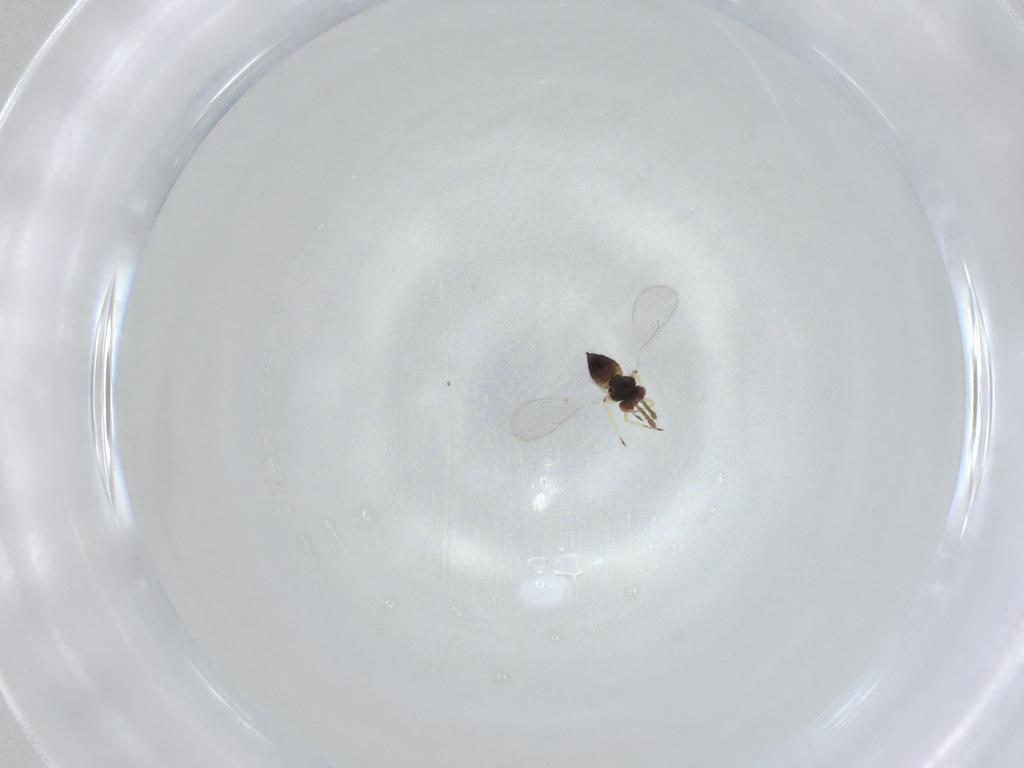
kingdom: Animalia
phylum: Arthropoda
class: Insecta
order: Hymenoptera
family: Eulophidae
